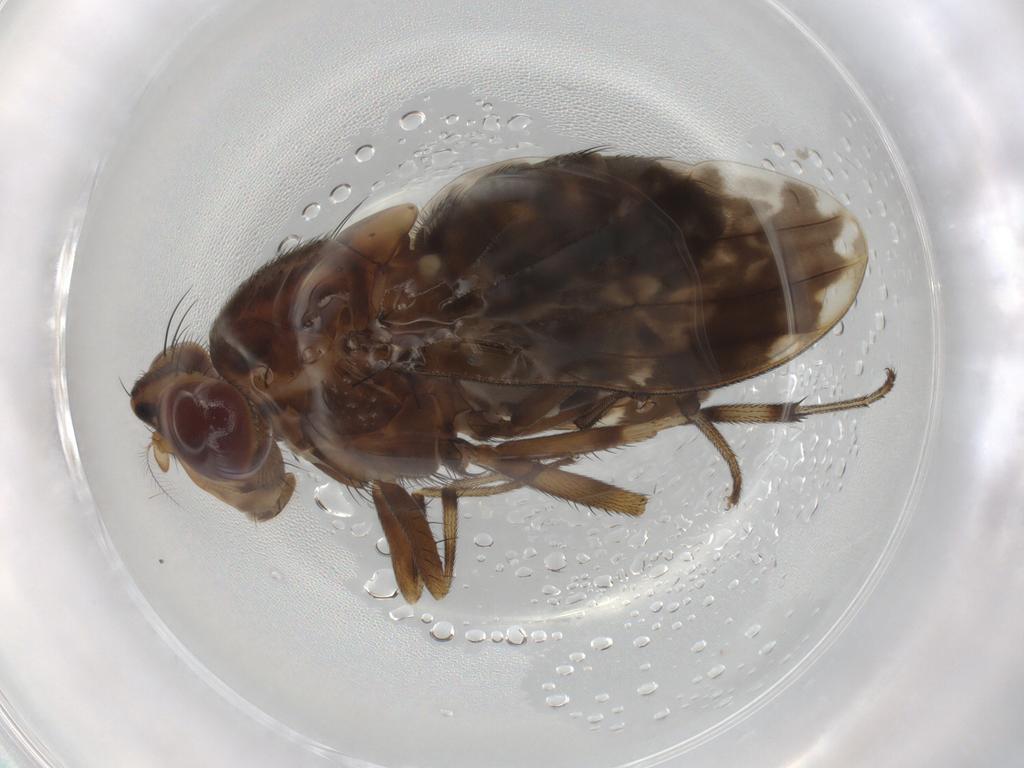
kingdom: Animalia
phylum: Arthropoda
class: Insecta
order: Diptera
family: Lauxaniidae
